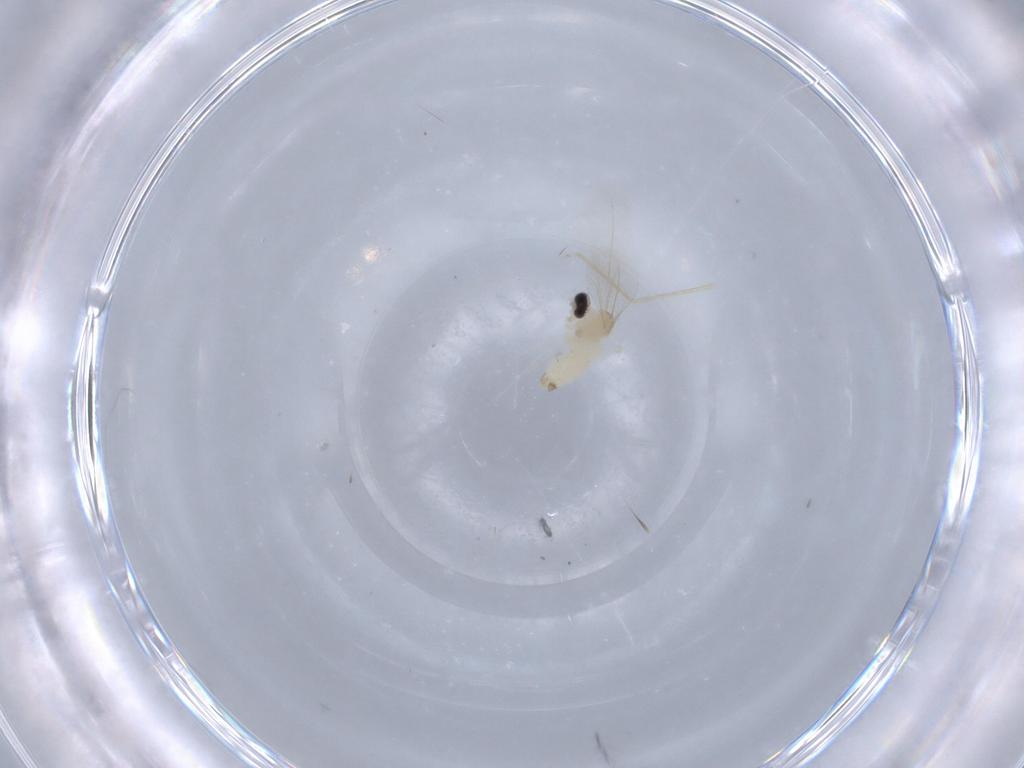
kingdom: Animalia
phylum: Arthropoda
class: Insecta
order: Diptera
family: Cecidomyiidae
